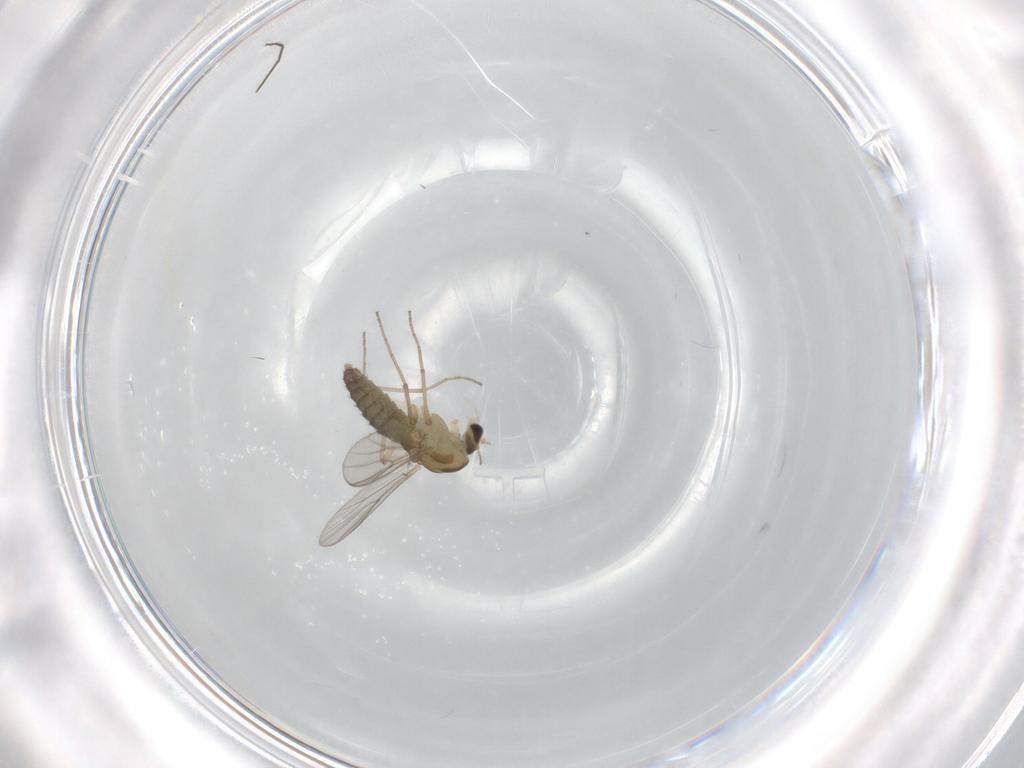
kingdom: Animalia
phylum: Arthropoda
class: Insecta
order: Diptera
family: Chironomidae
